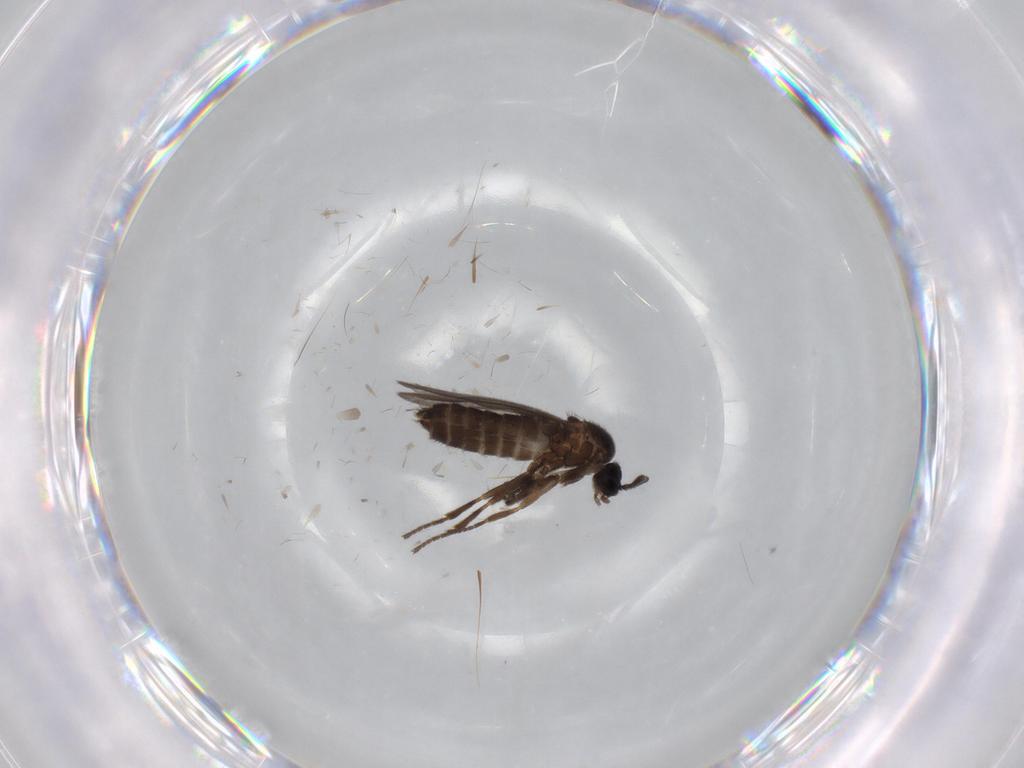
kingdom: Animalia
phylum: Arthropoda
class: Insecta
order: Diptera
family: Scatopsidae
